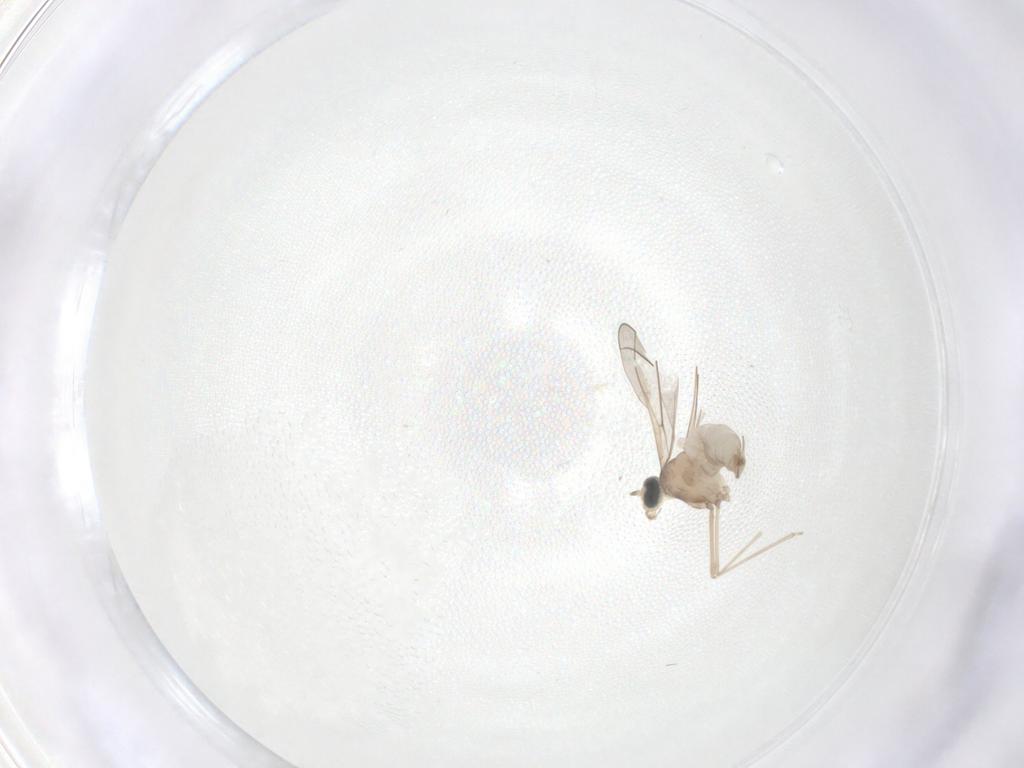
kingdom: Animalia
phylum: Arthropoda
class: Insecta
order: Diptera
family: Cecidomyiidae
